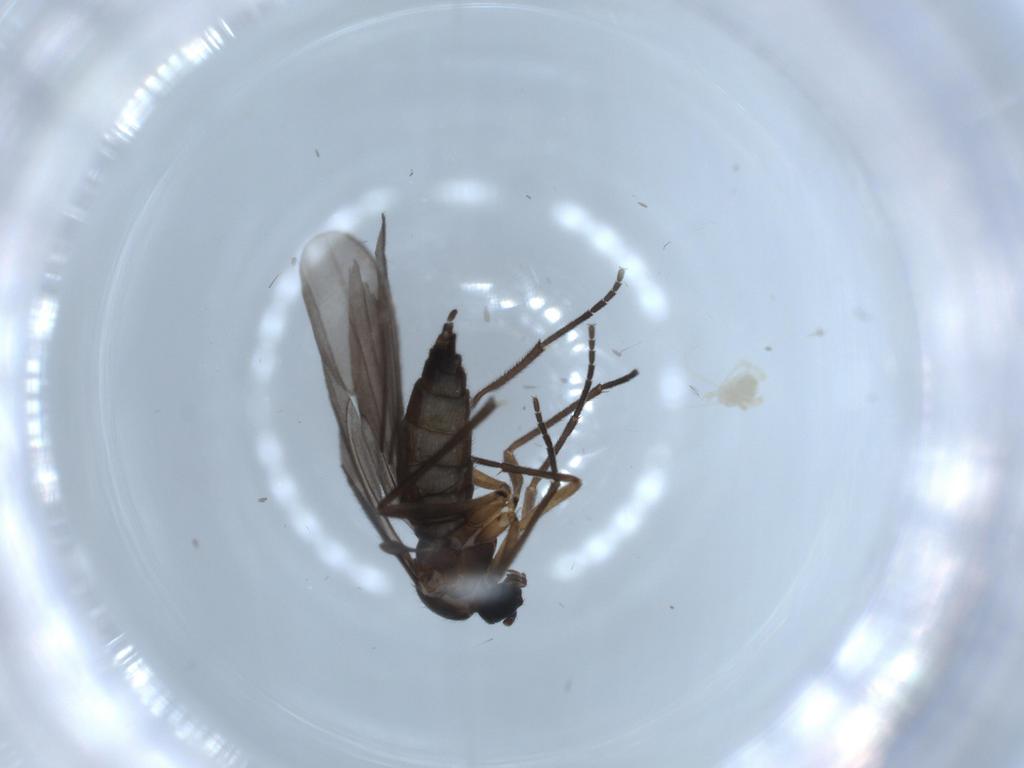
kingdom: Animalia
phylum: Arthropoda
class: Insecta
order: Diptera
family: Sciaridae
